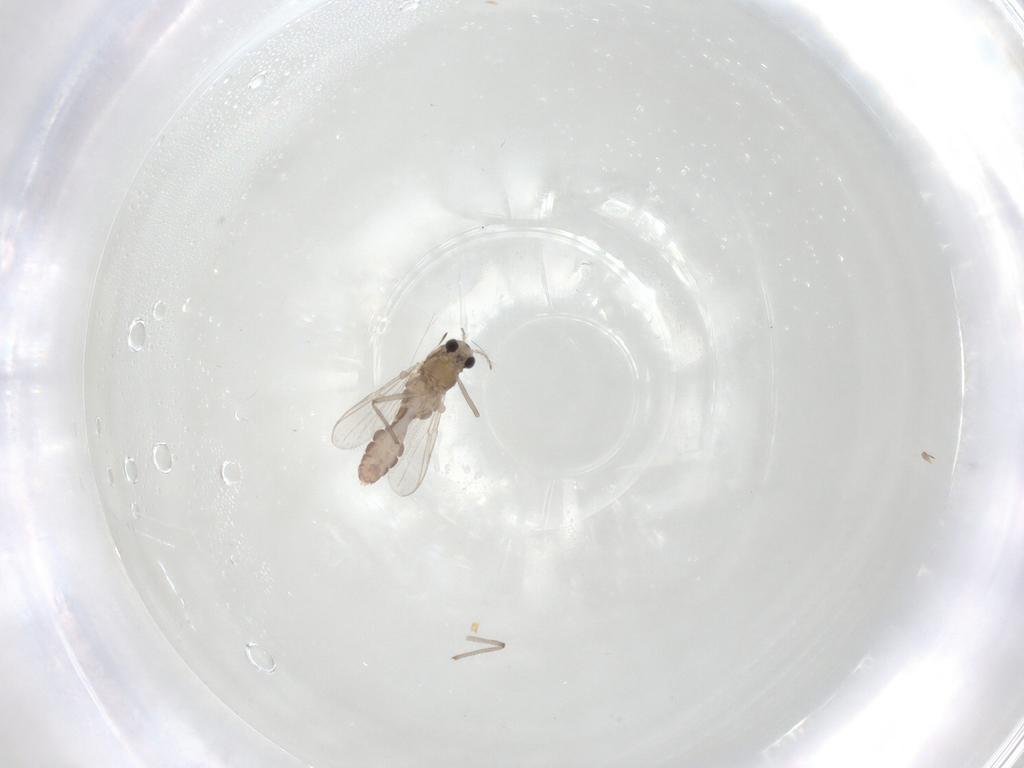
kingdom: Animalia
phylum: Arthropoda
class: Insecta
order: Diptera
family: Chironomidae
